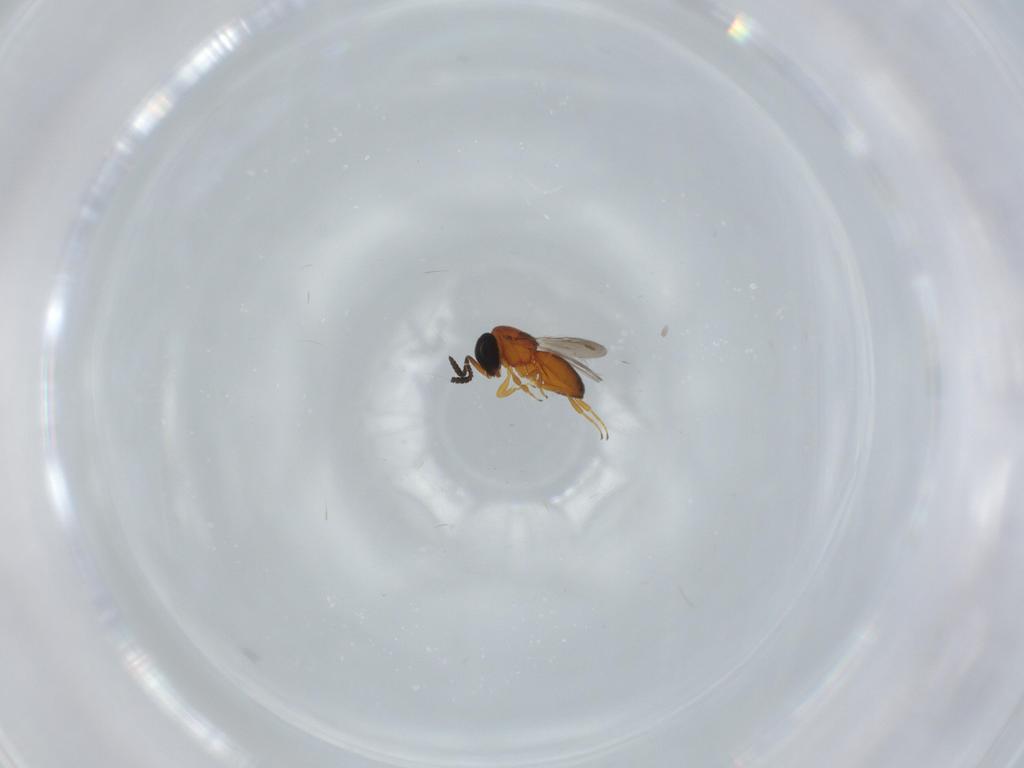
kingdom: Animalia
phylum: Arthropoda
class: Insecta
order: Hymenoptera
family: Scelionidae
